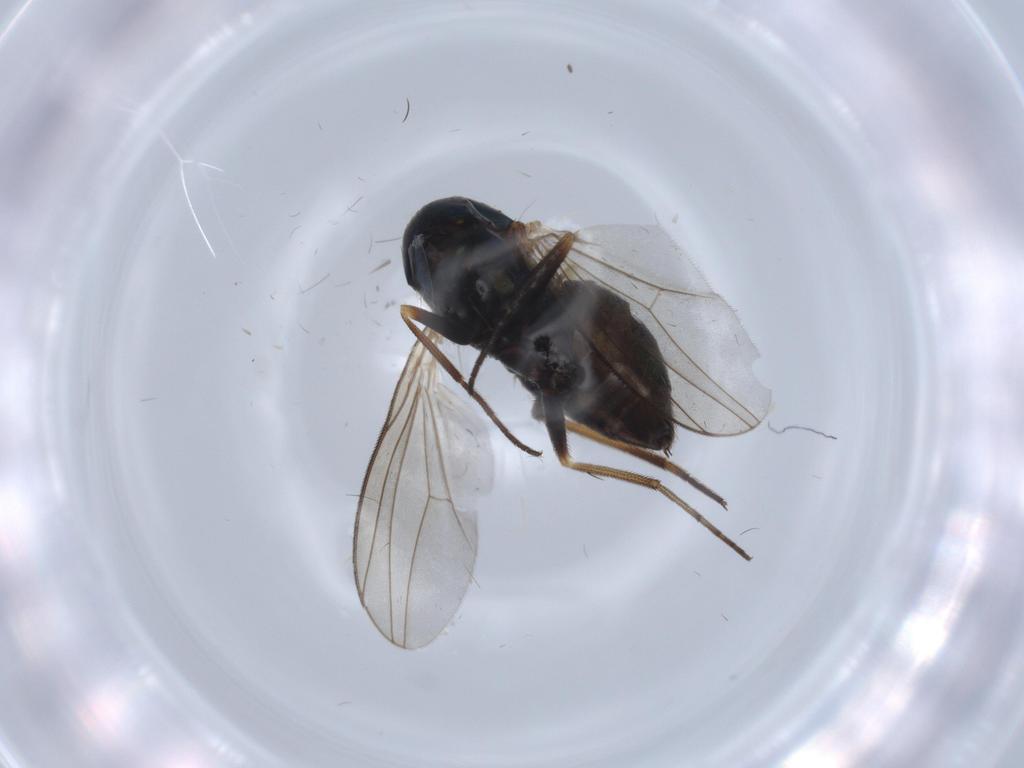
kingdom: Animalia
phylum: Arthropoda
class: Insecta
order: Diptera
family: Dolichopodidae
